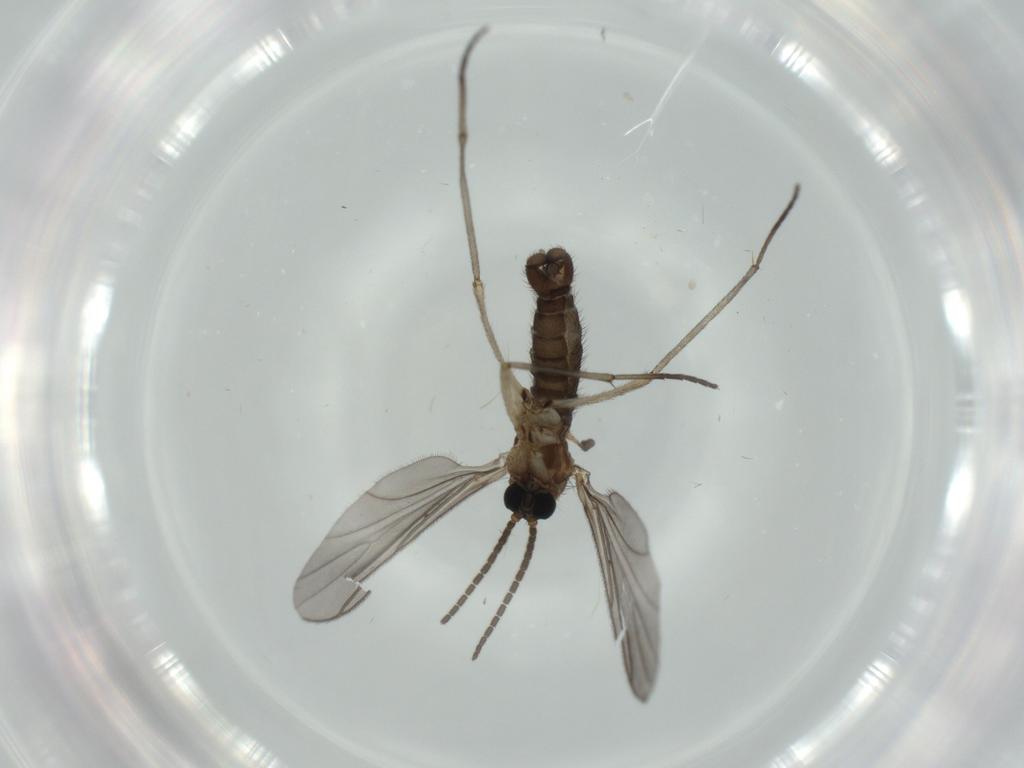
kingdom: Animalia
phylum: Arthropoda
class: Insecta
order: Diptera
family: Sciaridae
